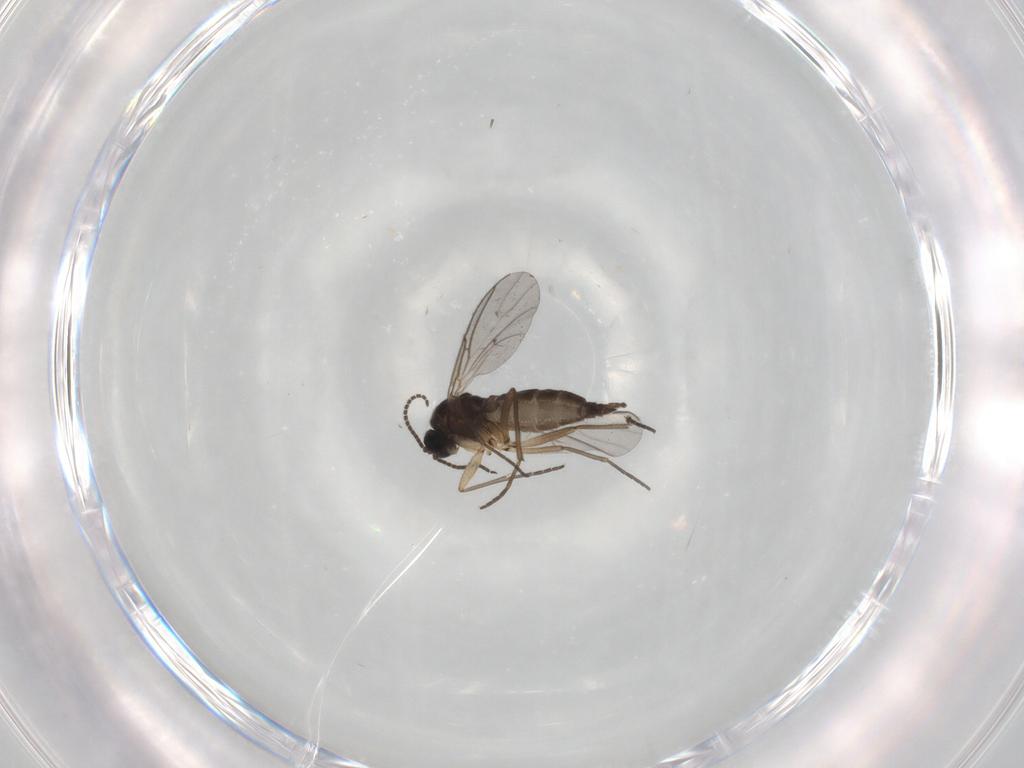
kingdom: Animalia
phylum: Arthropoda
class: Insecta
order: Diptera
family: Sciaridae
